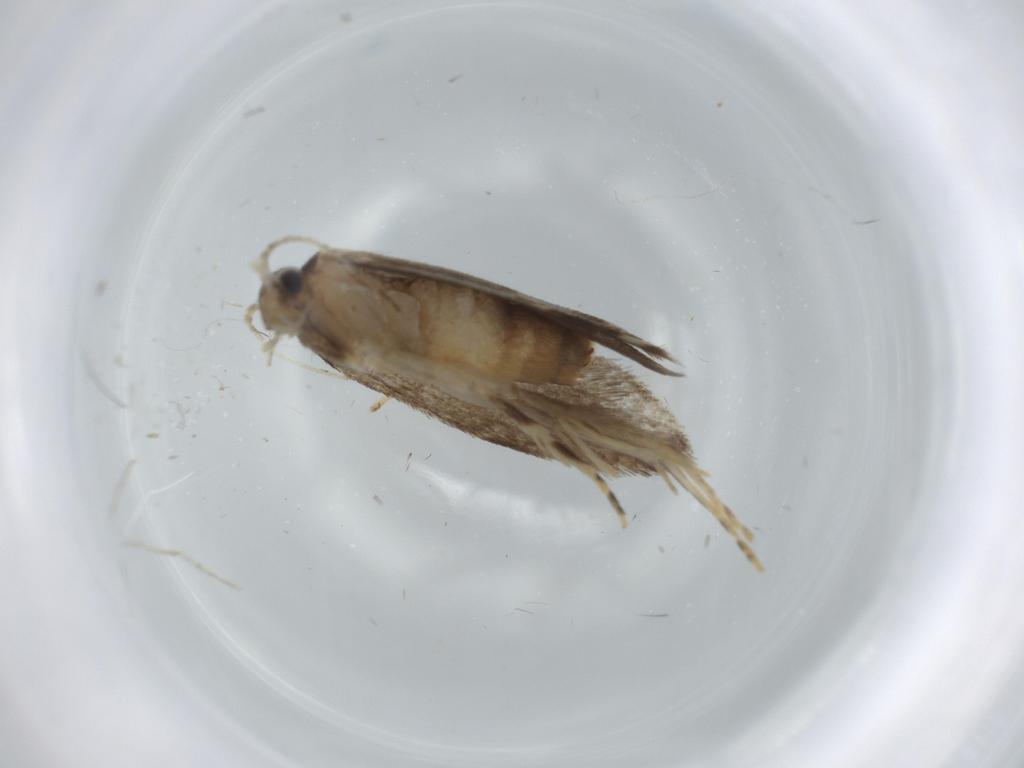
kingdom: Animalia
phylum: Arthropoda
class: Insecta
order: Lepidoptera
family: Tineidae
